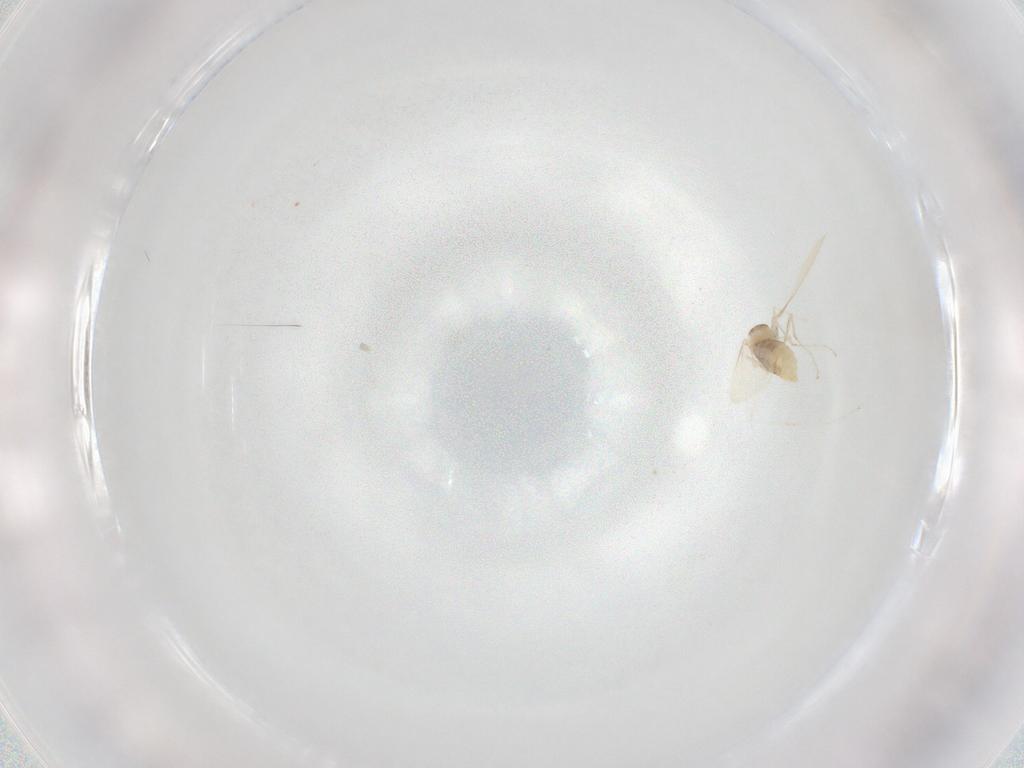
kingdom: Animalia
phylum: Arthropoda
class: Insecta
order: Diptera
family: Cecidomyiidae
